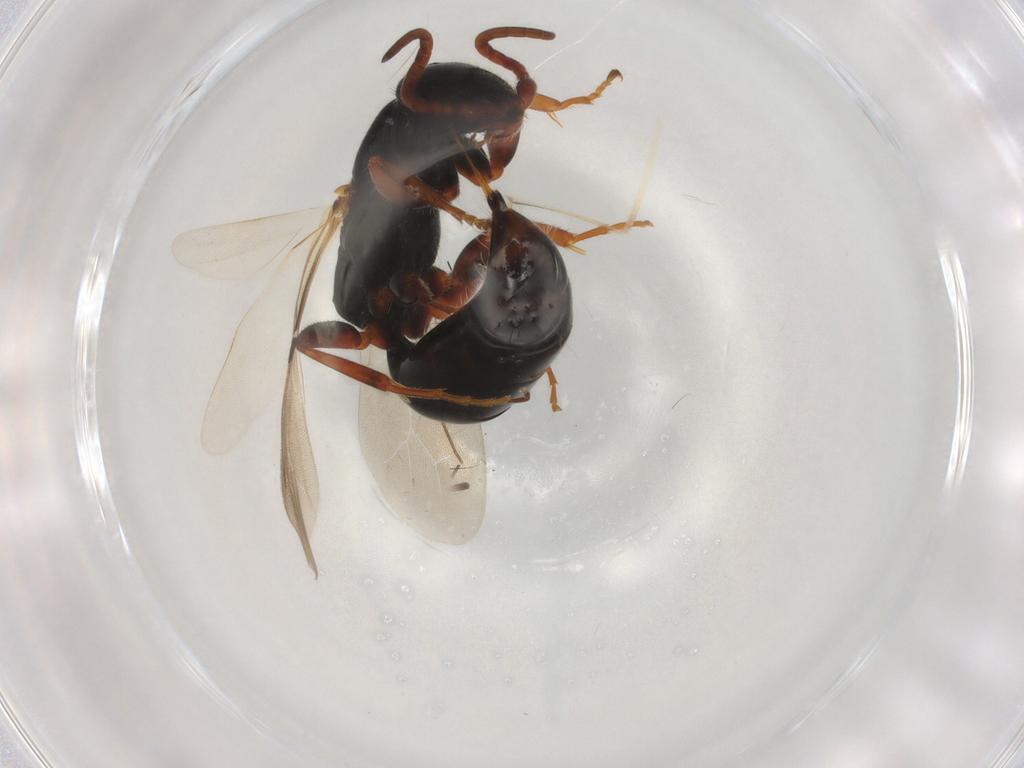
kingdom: Animalia
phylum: Arthropoda
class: Insecta
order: Hymenoptera
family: Bethylidae
